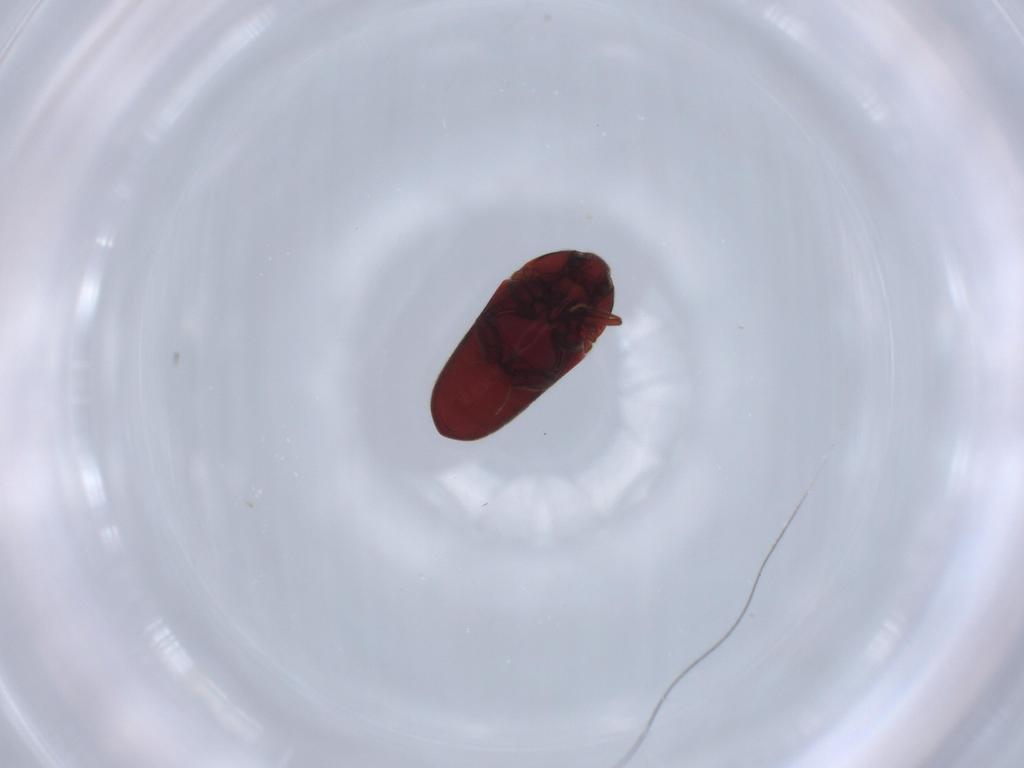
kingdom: Animalia
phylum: Arthropoda
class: Insecta
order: Coleoptera
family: Throscidae
